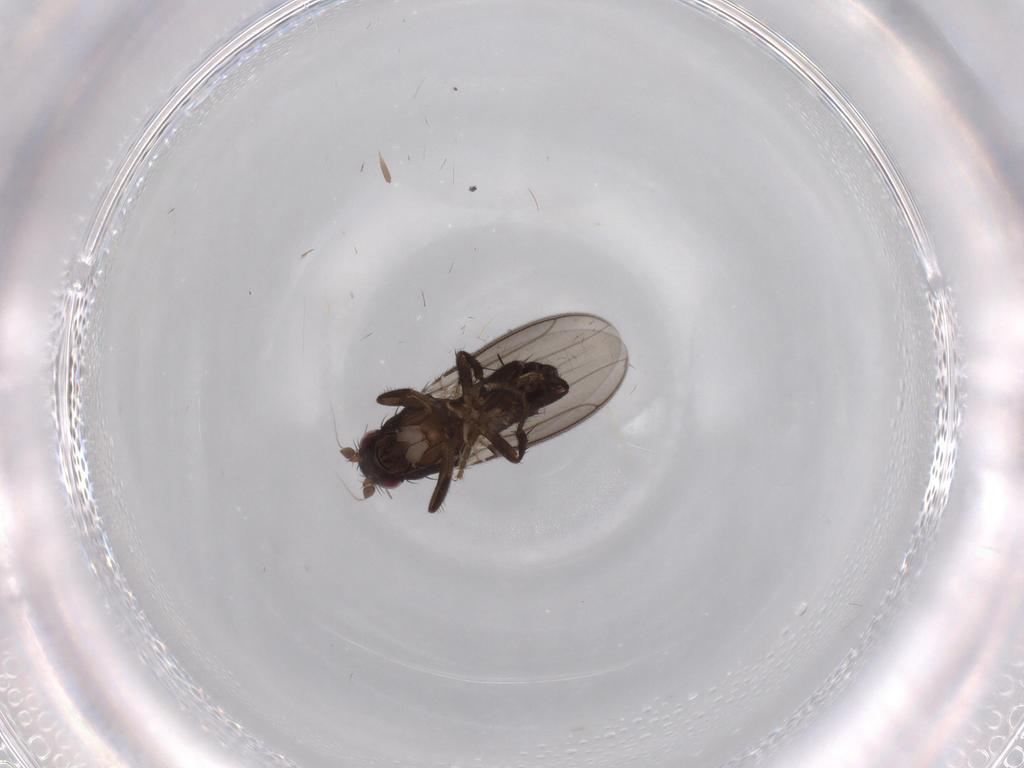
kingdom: Animalia
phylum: Arthropoda
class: Insecta
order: Diptera
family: Sphaeroceridae
